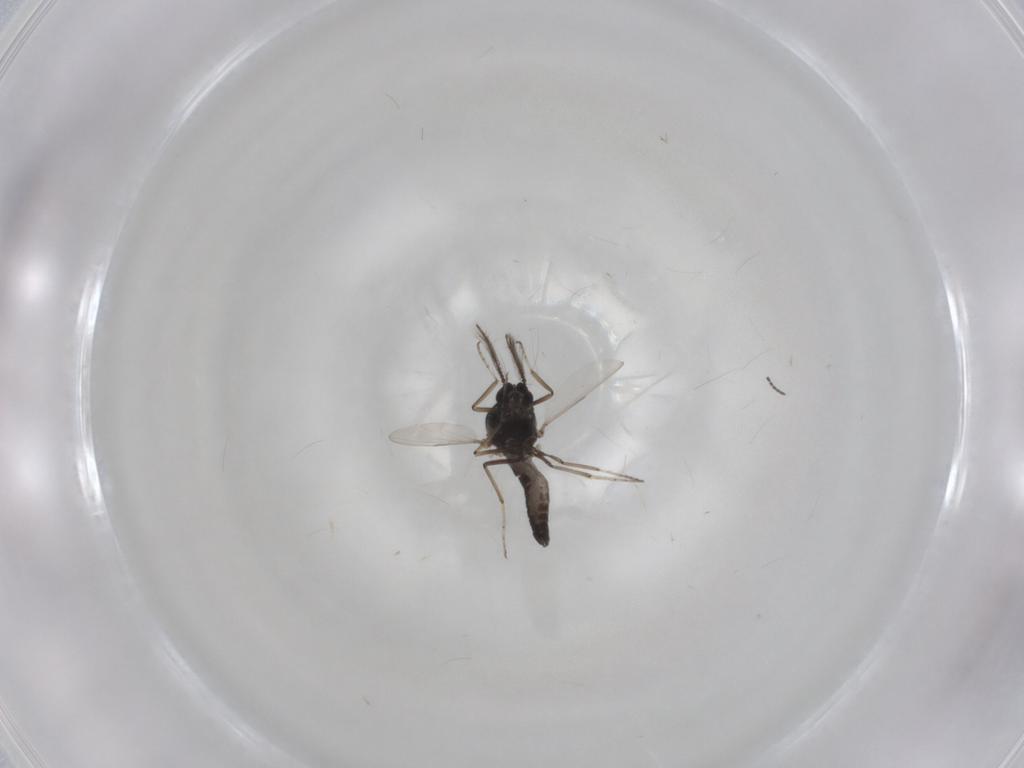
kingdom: Animalia
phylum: Arthropoda
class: Insecta
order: Diptera
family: Ceratopogonidae
